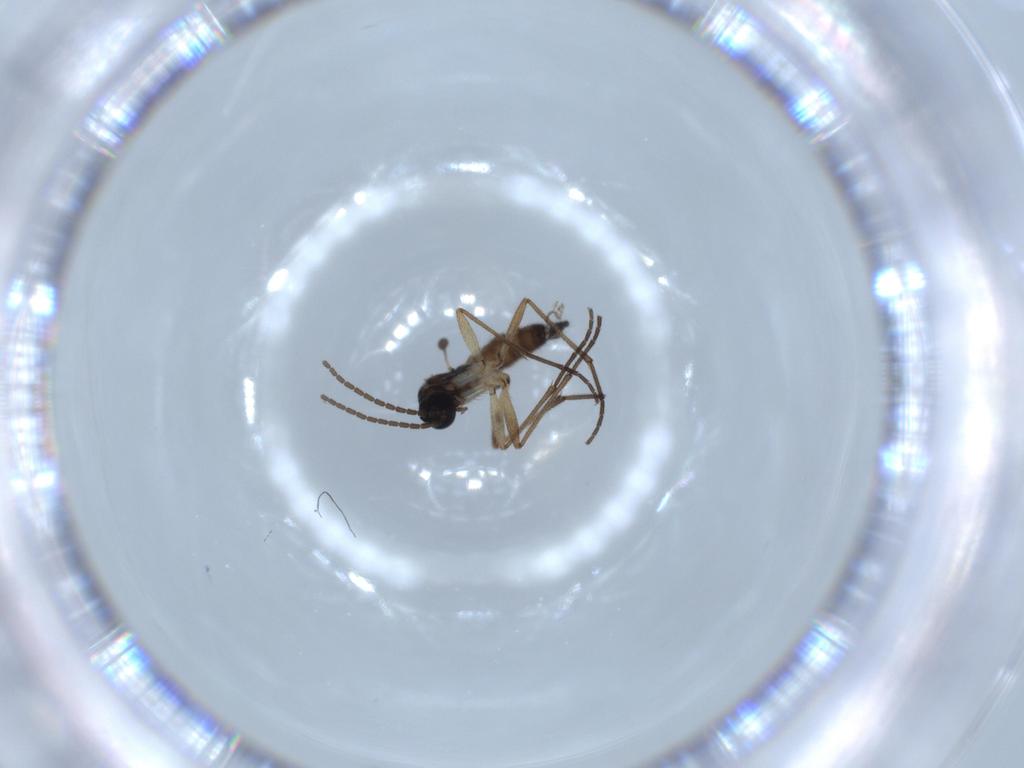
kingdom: Animalia
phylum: Arthropoda
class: Insecta
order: Diptera
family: Sciaridae
